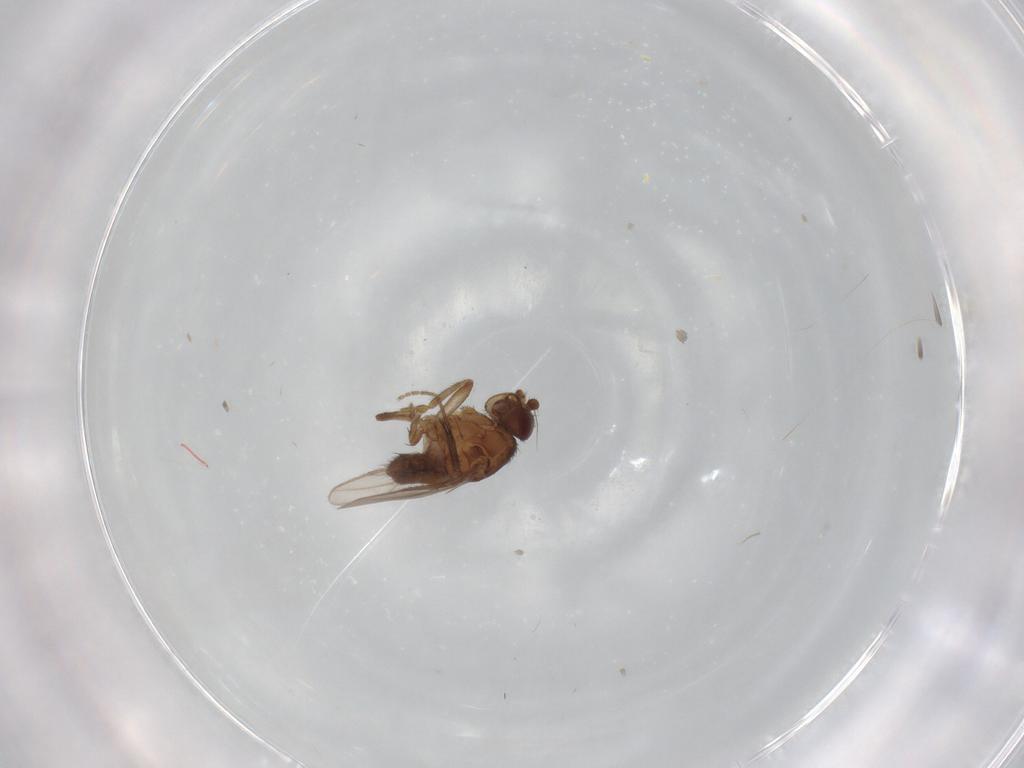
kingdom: Animalia
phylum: Arthropoda
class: Insecta
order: Diptera
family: Sphaeroceridae
